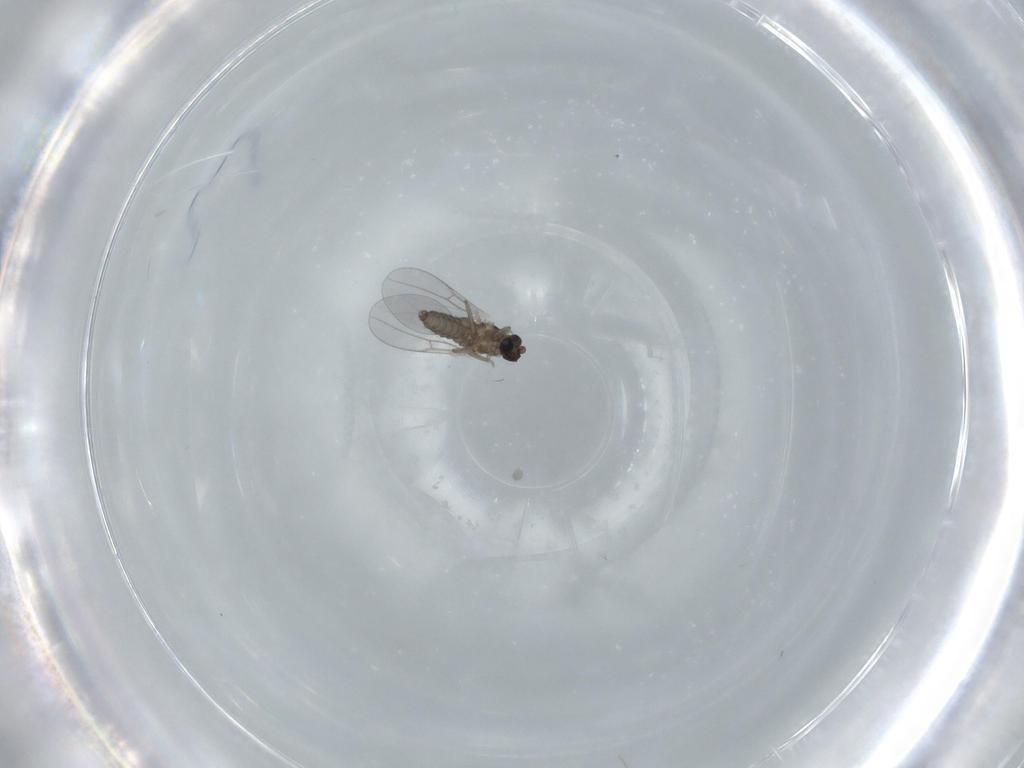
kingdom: Animalia
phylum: Arthropoda
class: Insecta
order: Diptera
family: Cecidomyiidae
